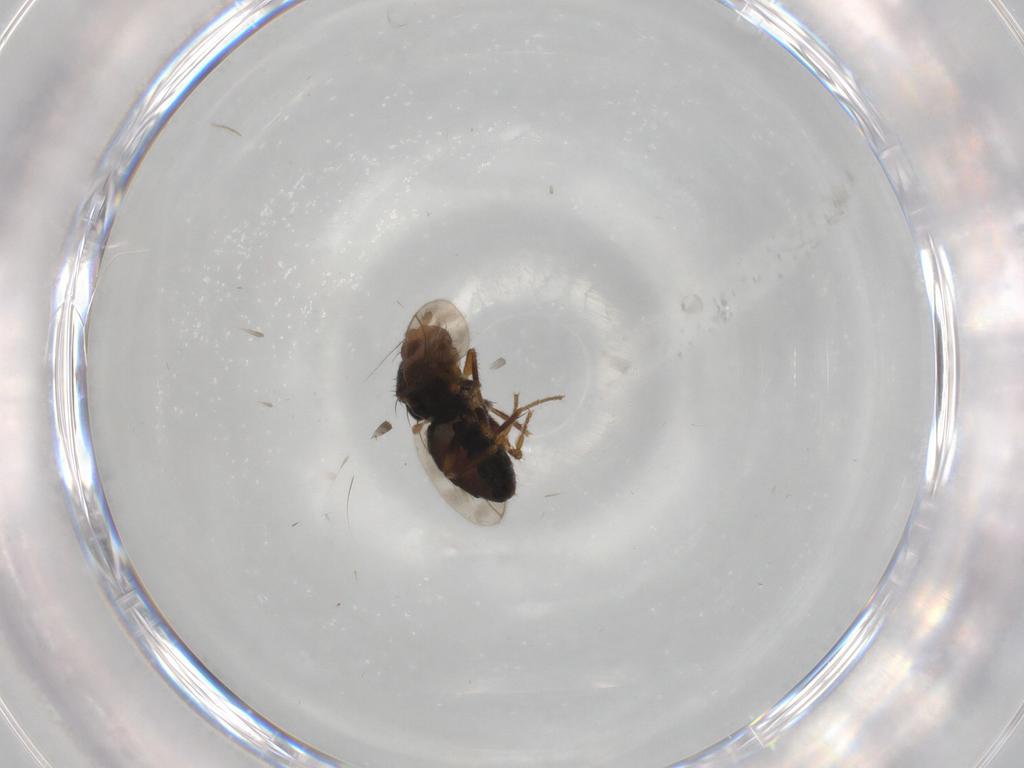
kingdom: Animalia
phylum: Arthropoda
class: Insecta
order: Diptera
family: Sphaeroceridae
